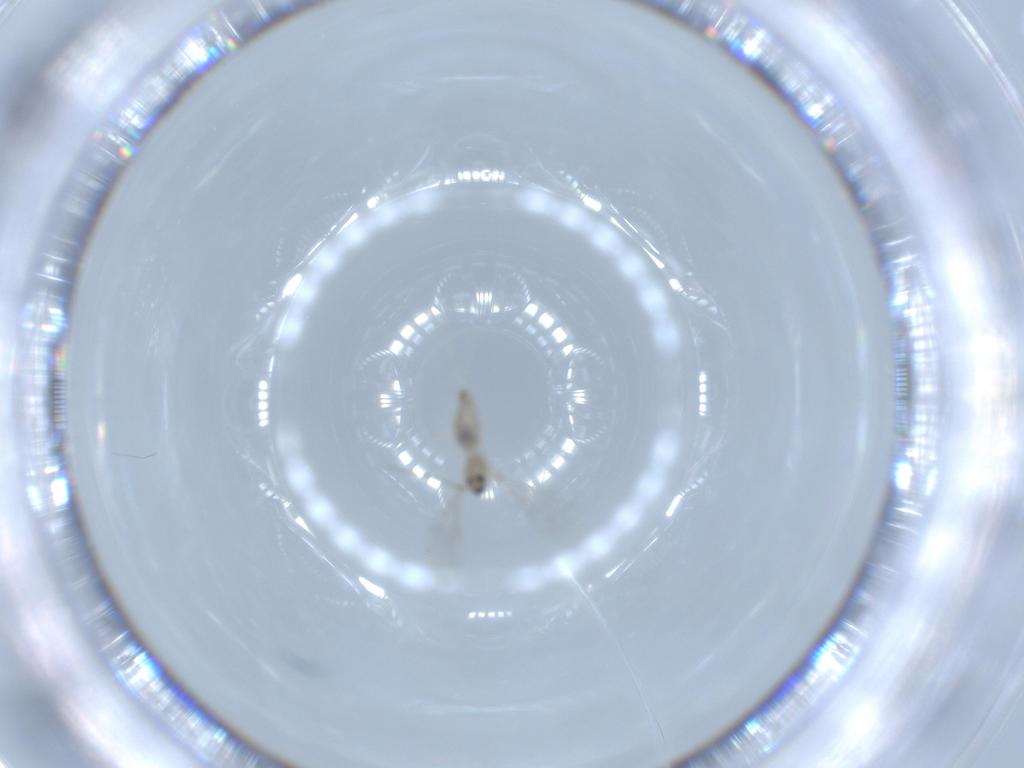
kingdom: Animalia
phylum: Arthropoda
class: Insecta
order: Diptera
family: Cecidomyiidae
